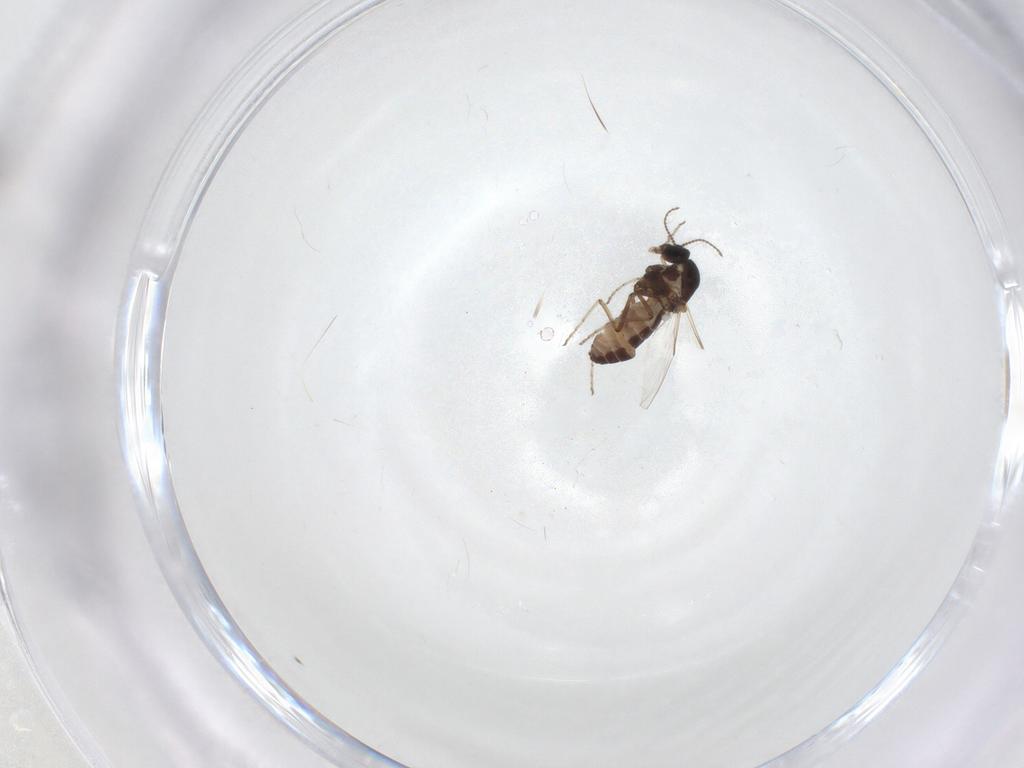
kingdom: Animalia
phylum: Arthropoda
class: Insecta
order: Diptera
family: Ceratopogonidae
